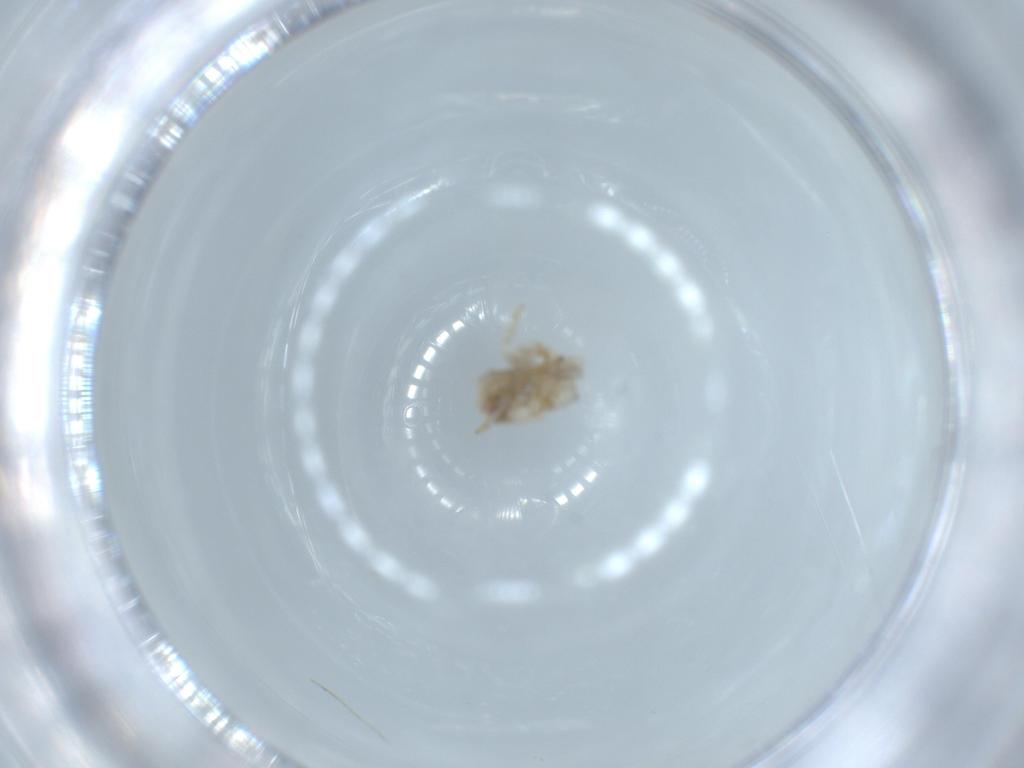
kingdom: Animalia
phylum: Arthropoda
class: Insecta
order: Hemiptera
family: Acanaloniidae
